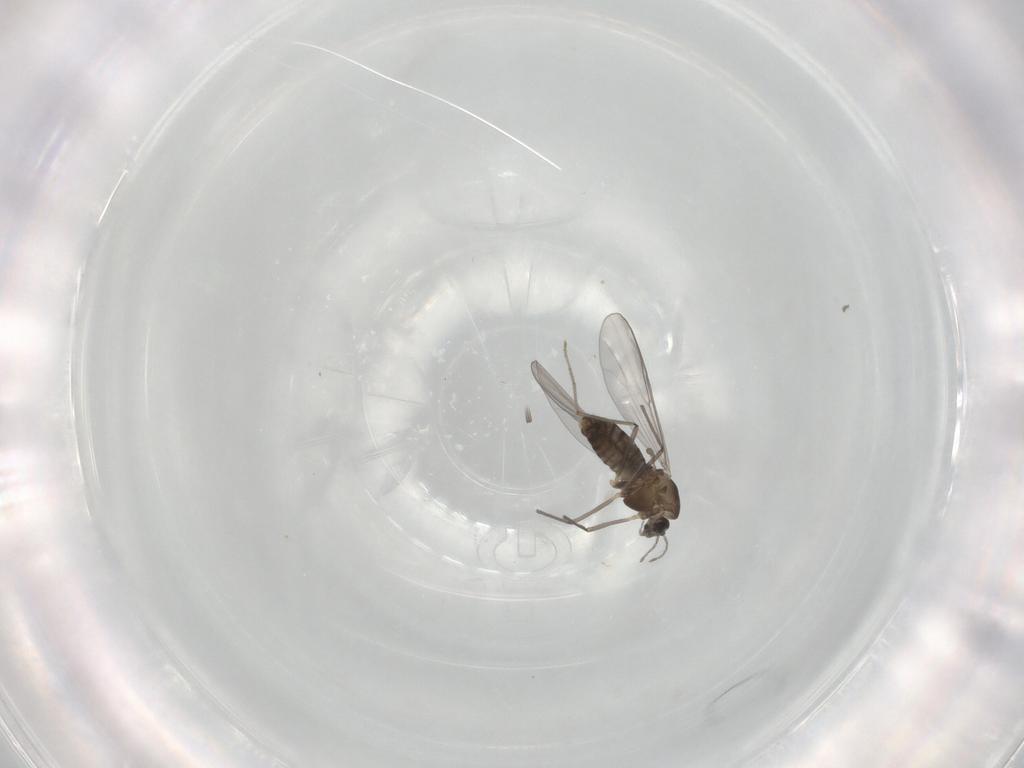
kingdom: Animalia
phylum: Arthropoda
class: Insecta
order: Diptera
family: Chironomidae
